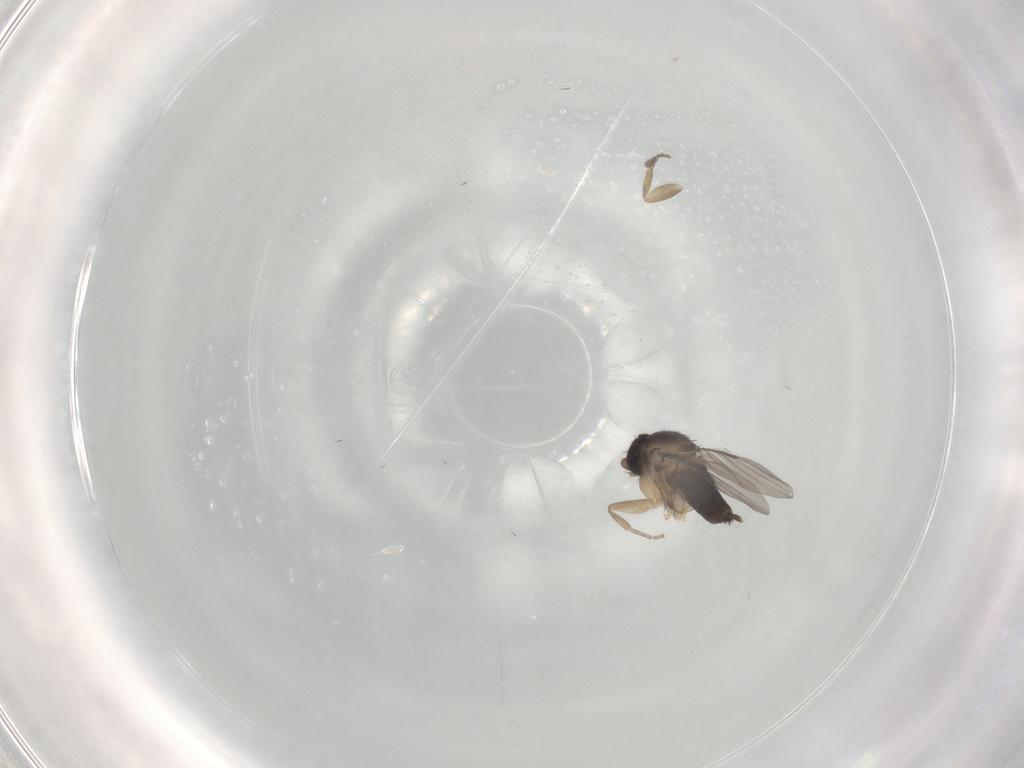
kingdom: Animalia
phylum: Arthropoda
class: Insecta
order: Diptera
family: Phoridae
